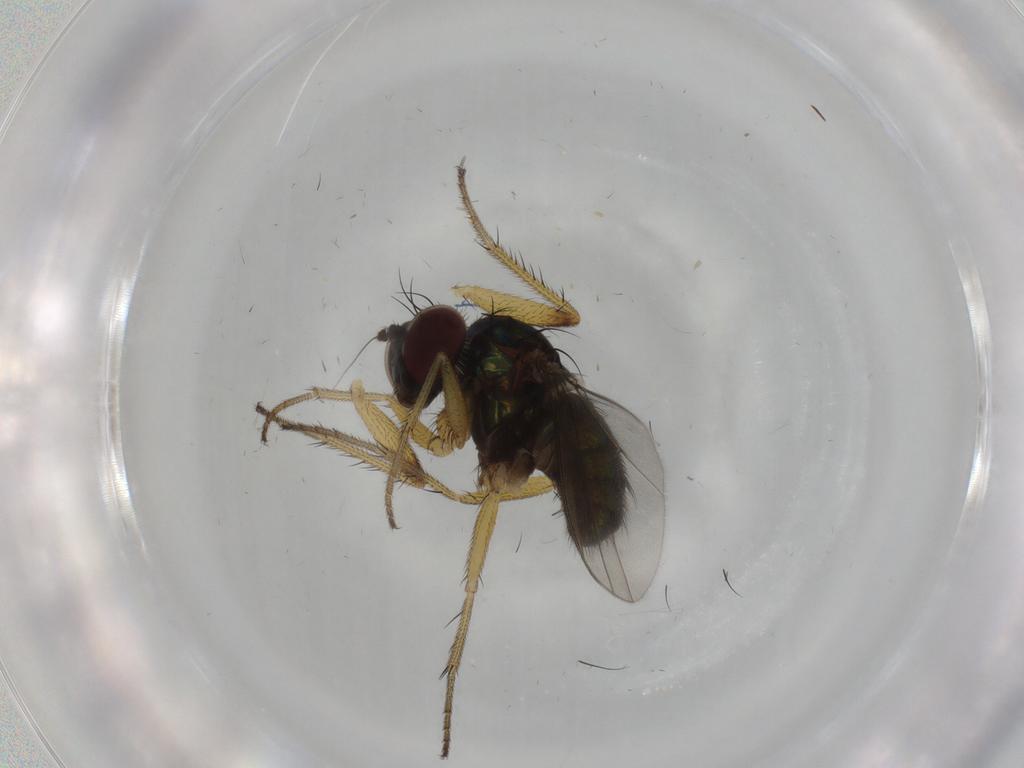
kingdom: Animalia
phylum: Arthropoda
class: Insecta
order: Diptera
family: Dolichopodidae
